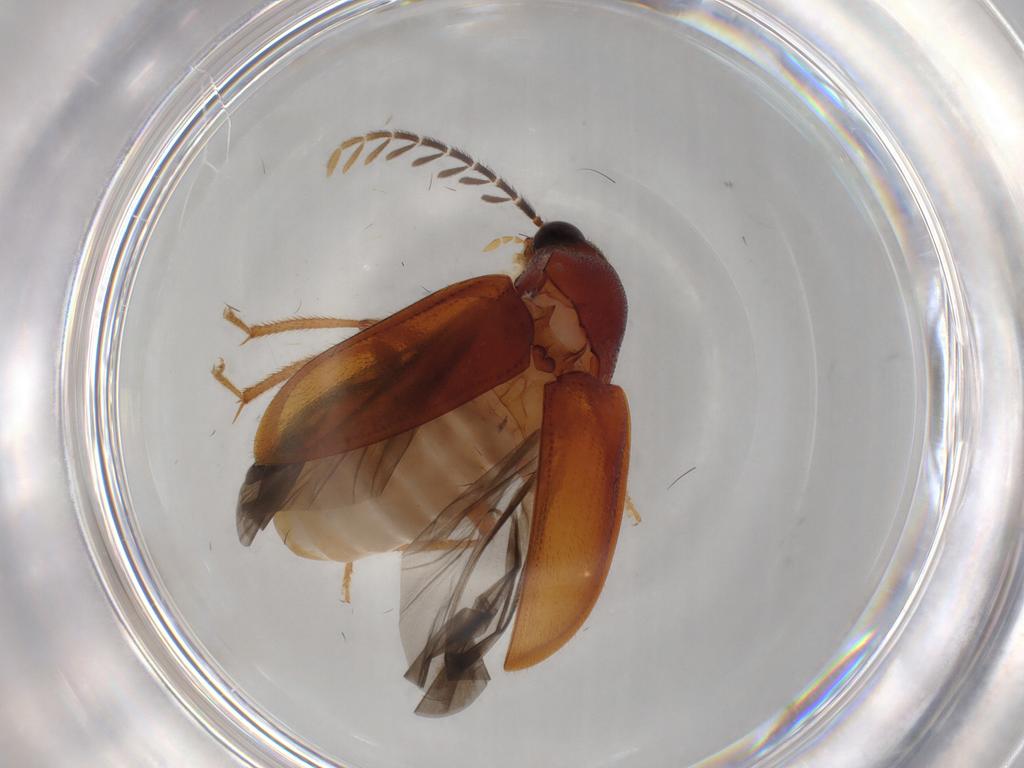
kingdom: Animalia
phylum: Arthropoda
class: Insecta
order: Coleoptera
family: Ptilodactylidae
